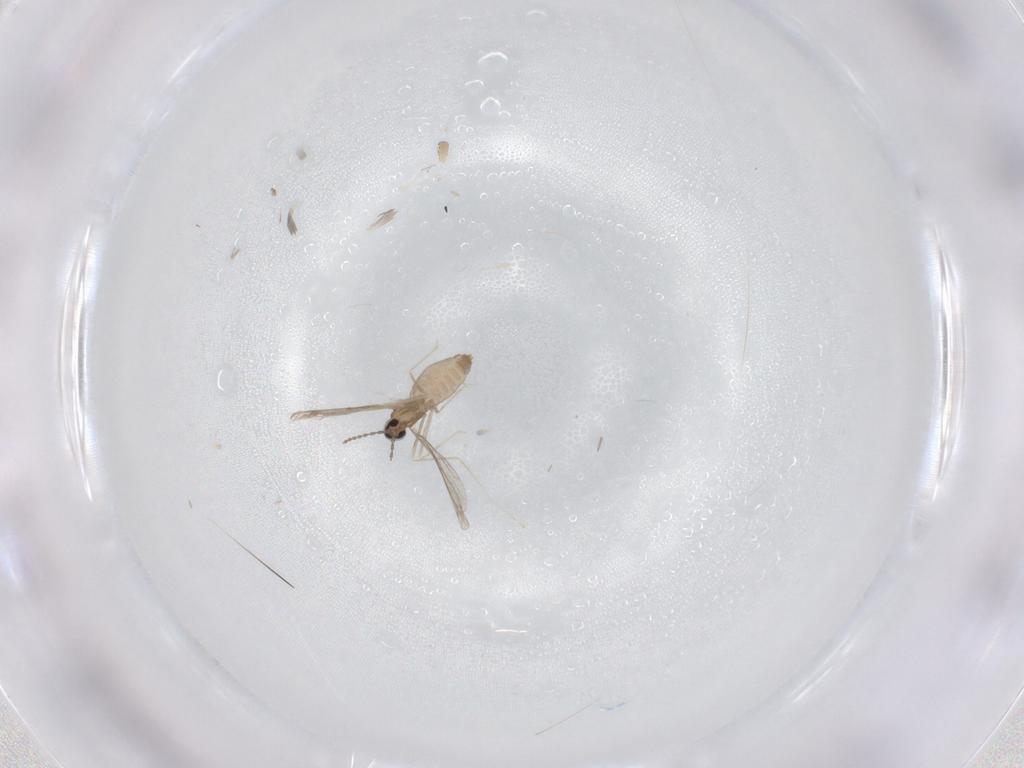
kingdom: Animalia
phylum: Arthropoda
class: Insecta
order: Diptera
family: Cecidomyiidae
